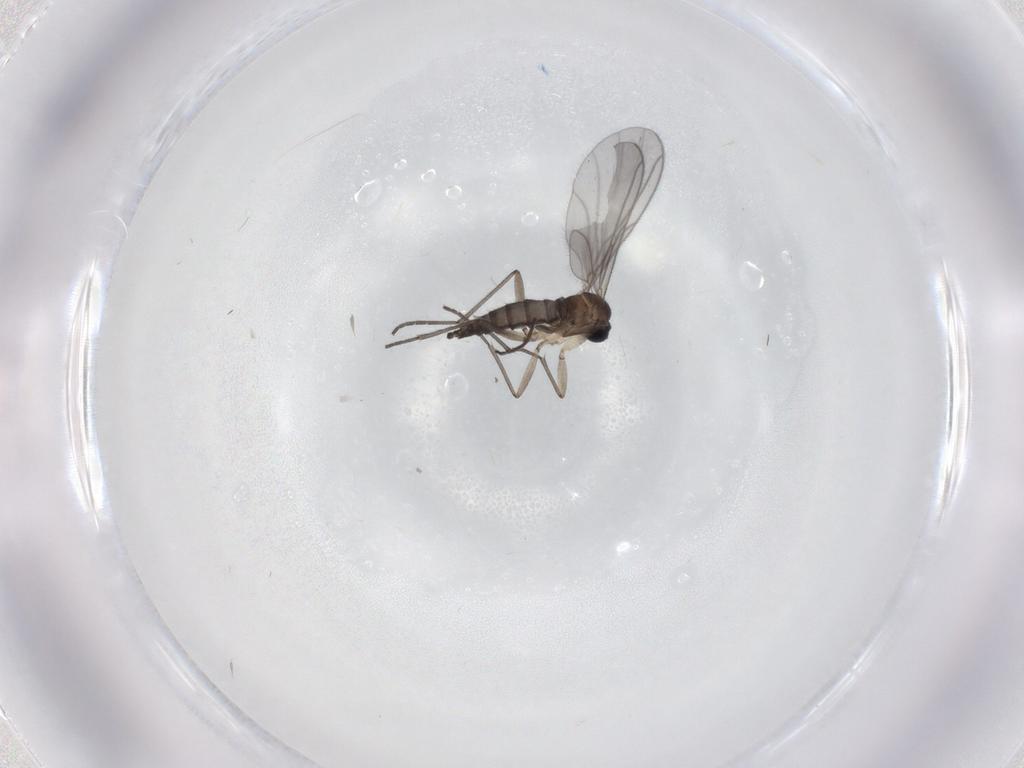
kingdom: Animalia
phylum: Arthropoda
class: Insecta
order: Diptera
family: Sciaridae
